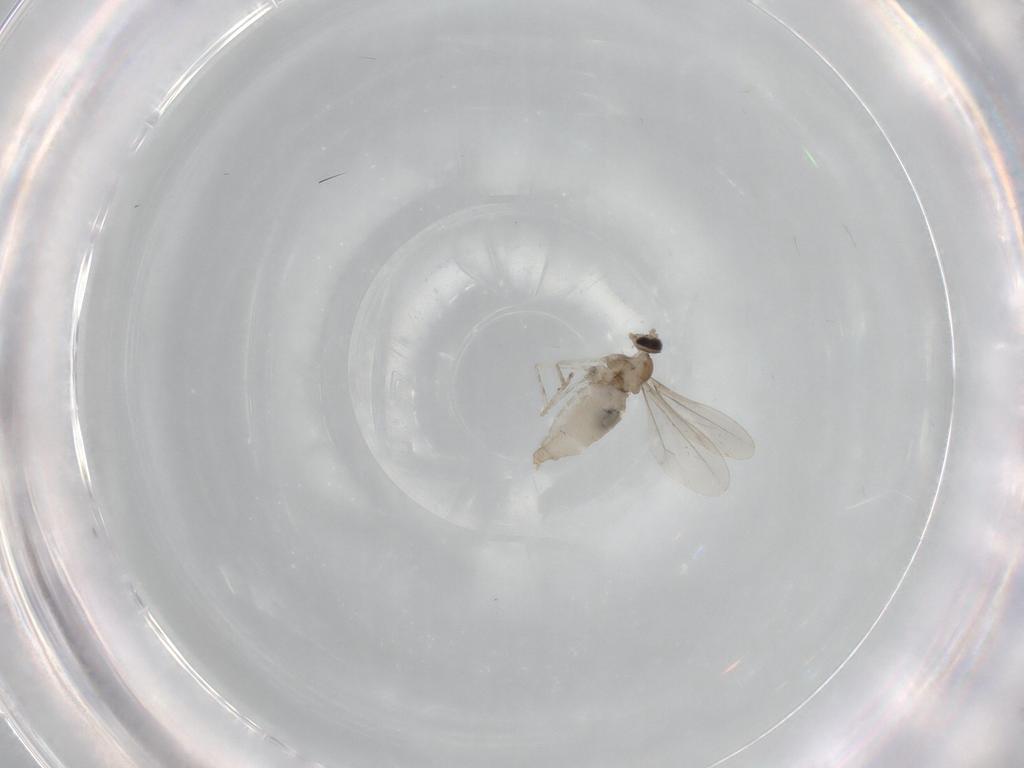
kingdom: Animalia
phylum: Arthropoda
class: Insecta
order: Diptera
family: Cecidomyiidae
